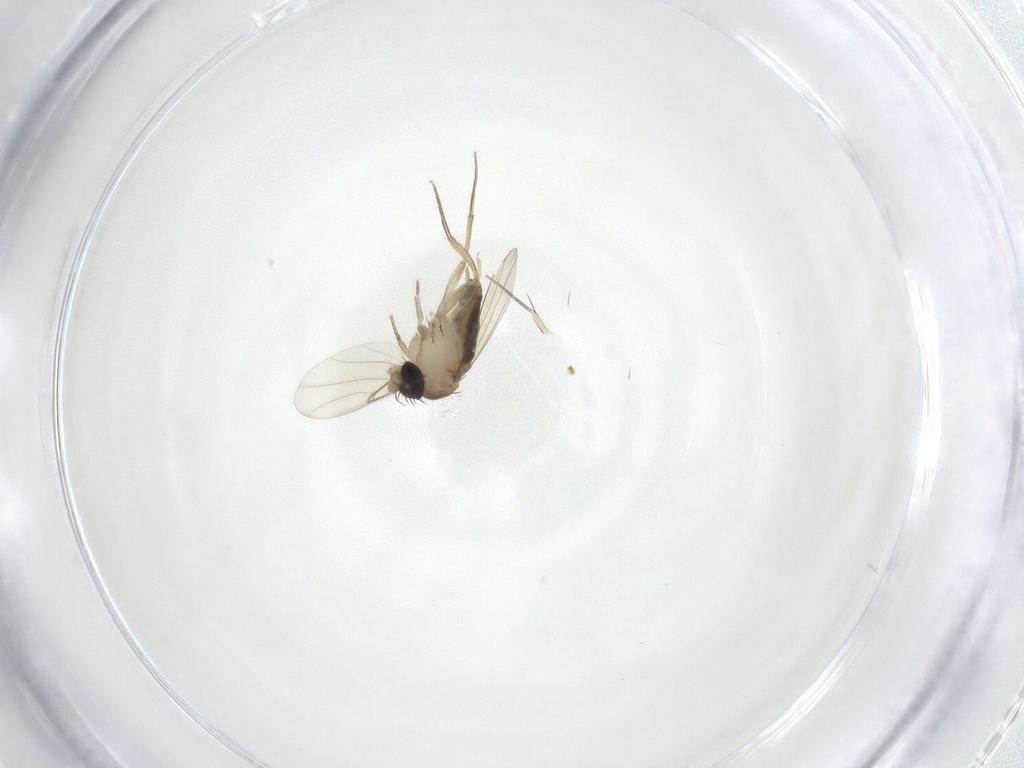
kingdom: Animalia
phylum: Arthropoda
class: Insecta
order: Diptera
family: Phoridae
